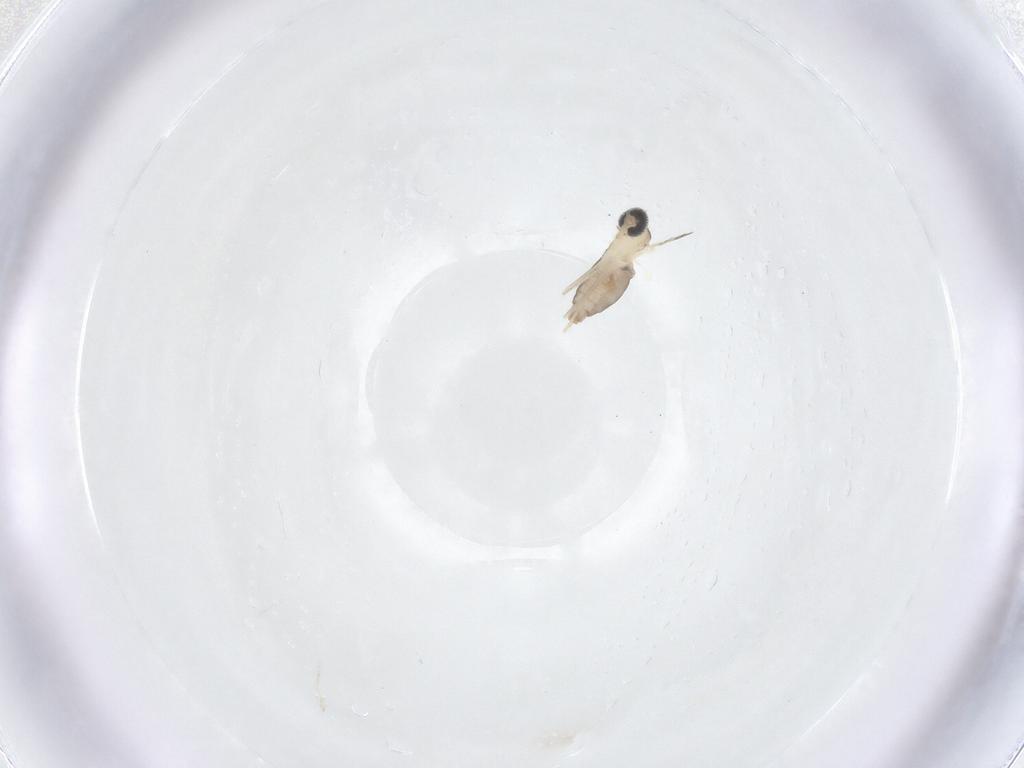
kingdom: Animalia
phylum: Arthropoda
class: Insecta
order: Diptera
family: Cecidomyiidae
